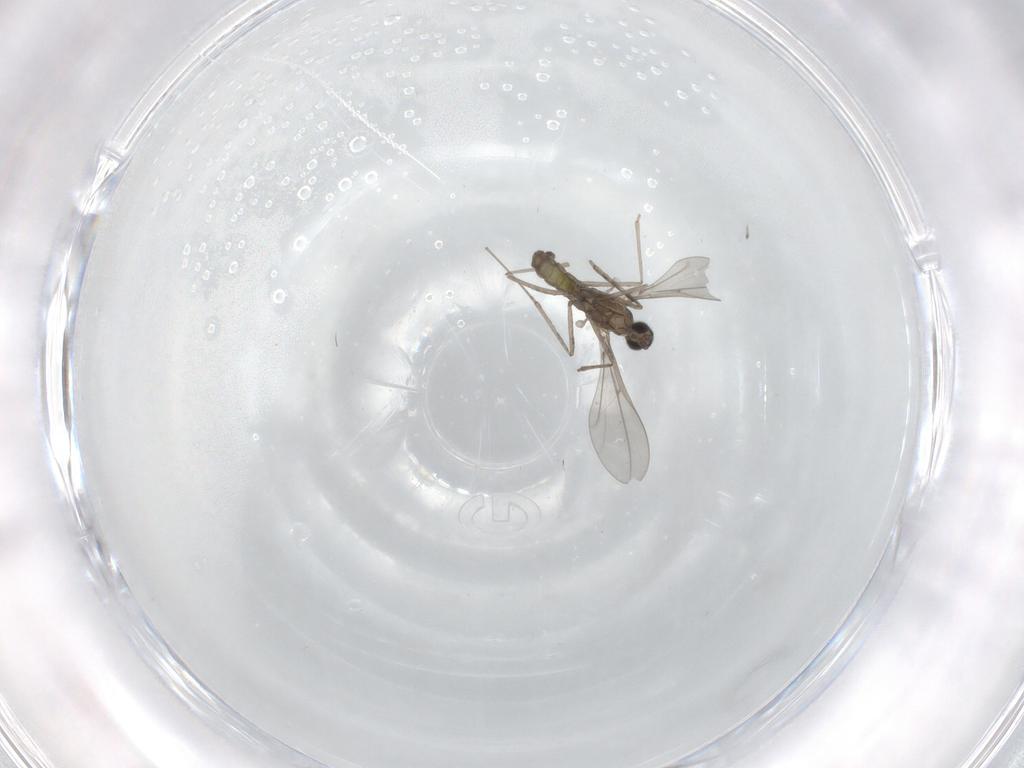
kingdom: Animalia
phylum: Arthropoda
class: Insecta
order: Diptera
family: Cecidomyiidae
